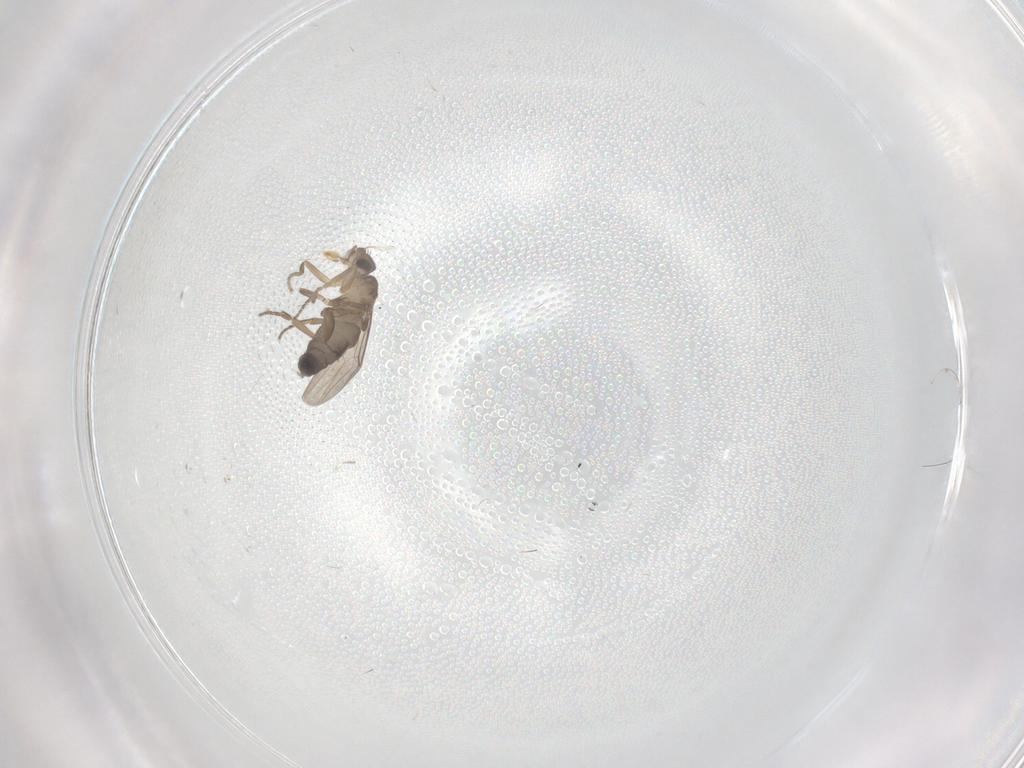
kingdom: Animalia
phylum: Arthropoda
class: Insecta
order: Diptera
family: Phoridae
